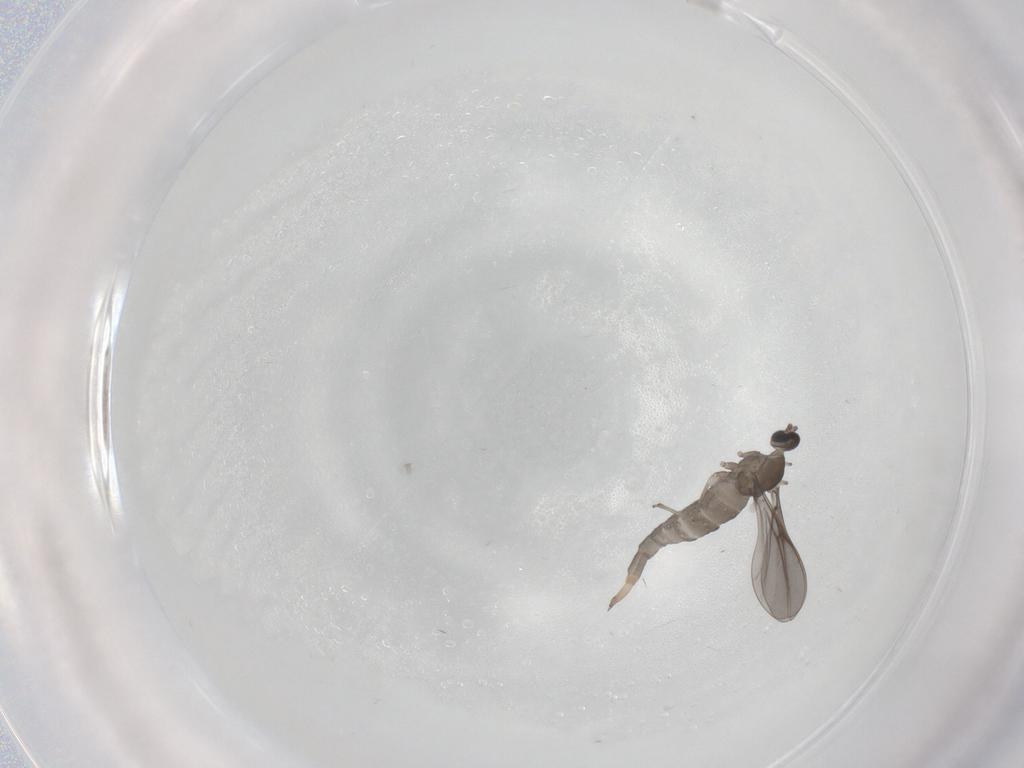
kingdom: Animalia
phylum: Arthropoda
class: Insecta
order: Diptera
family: Cecidomyiidae
